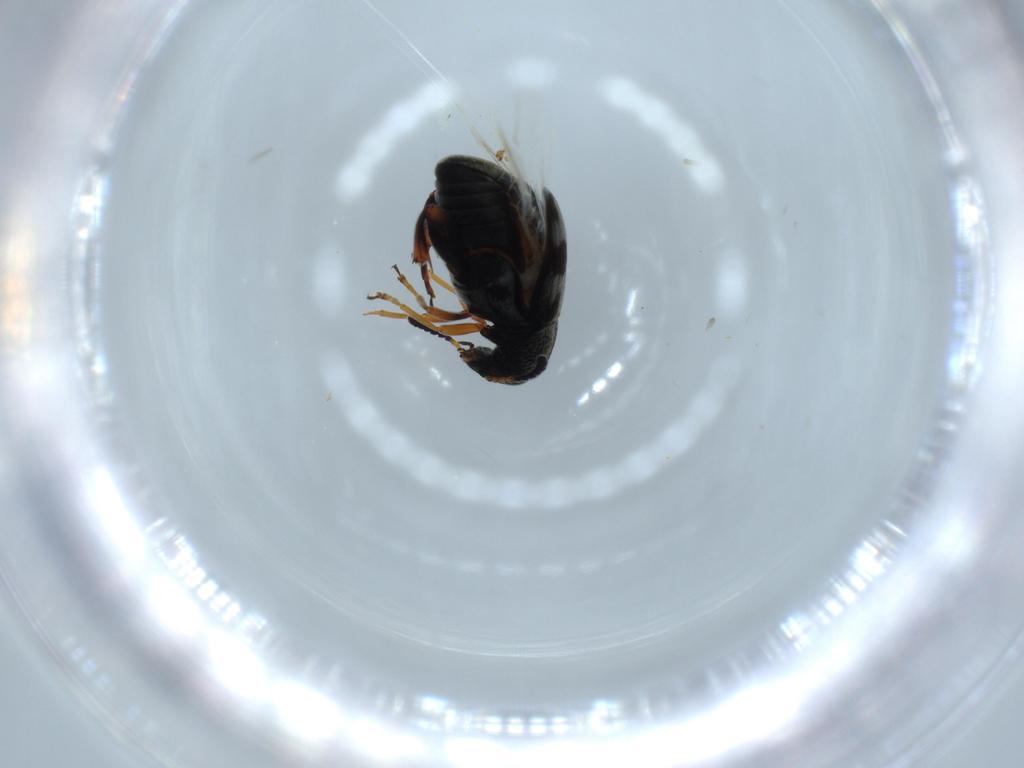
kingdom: Animalia
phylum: Arthropoda
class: Insecta
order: Coleoptera
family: Chrysomelidae
